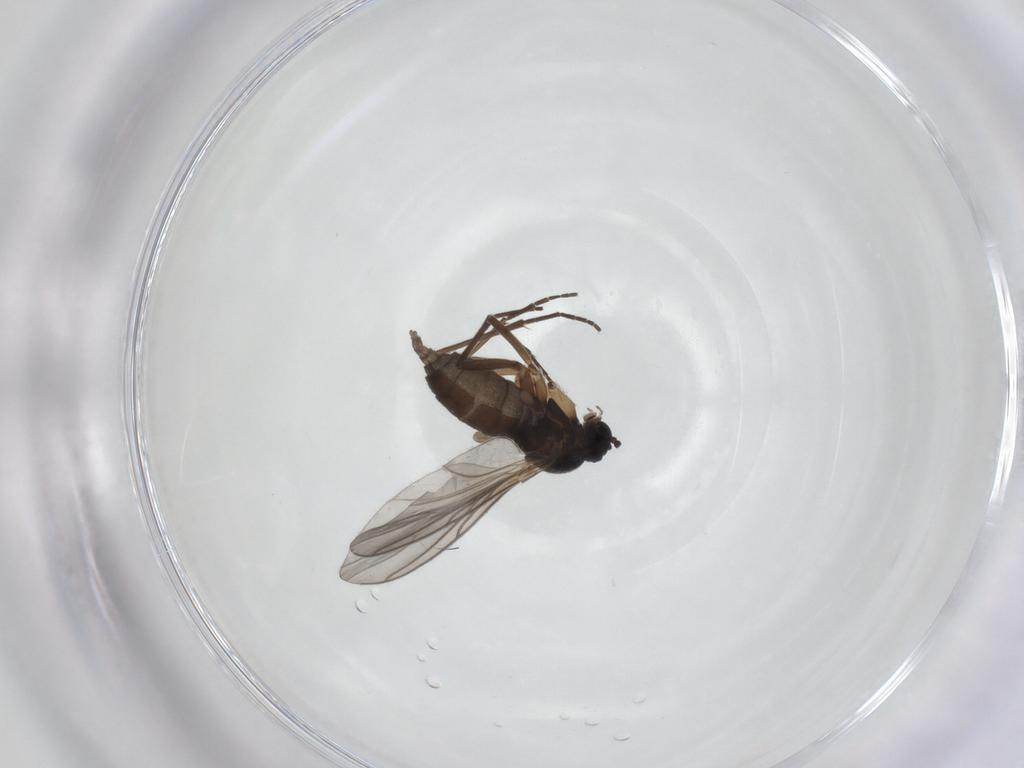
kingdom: Animalia
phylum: Arthropoda
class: Insecta
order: Diptera
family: Sciaridae
